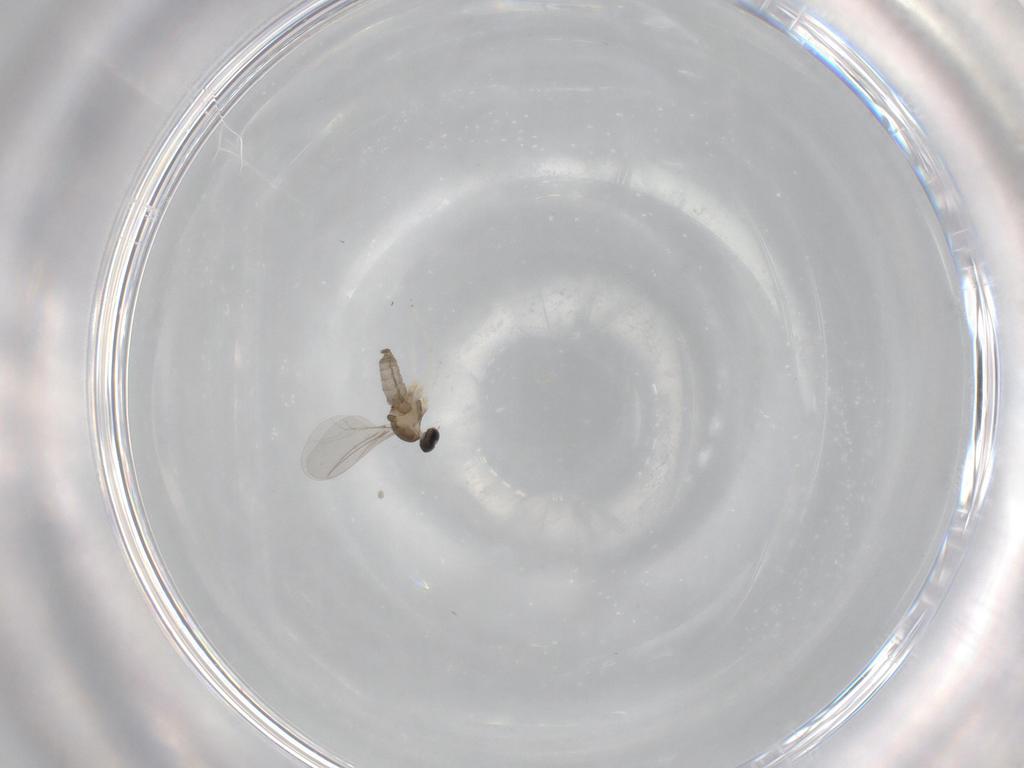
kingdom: Animalia
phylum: Arthropoda
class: Insecta
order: Diptera
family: Cecidomyiidae
